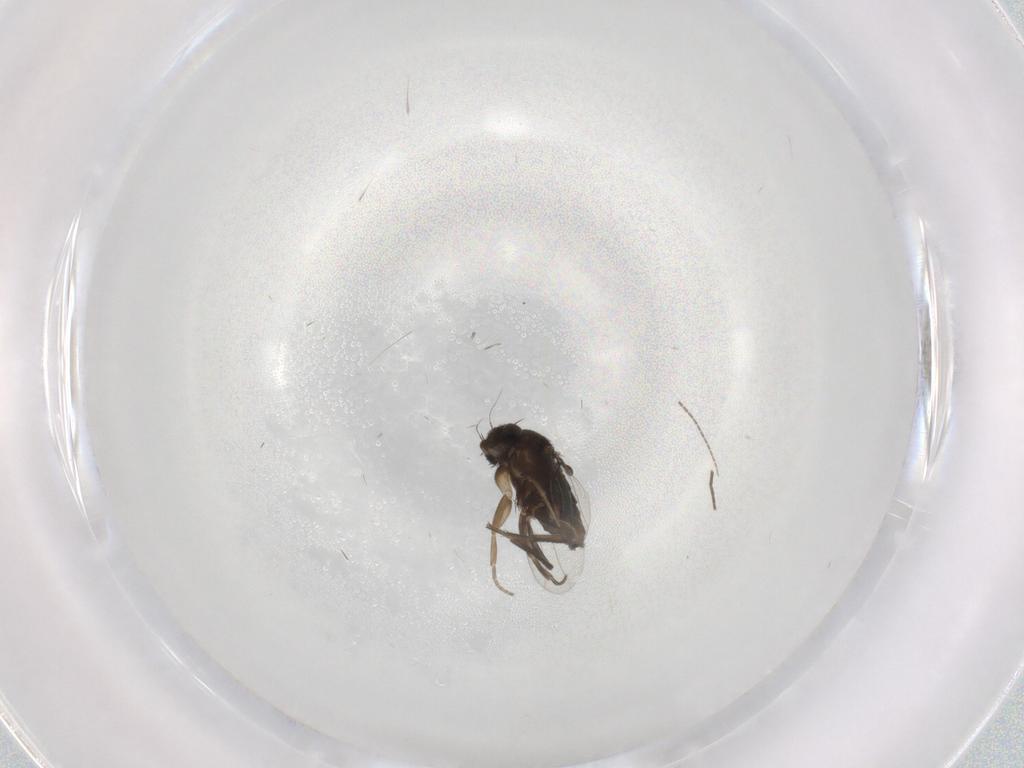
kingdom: Animalia
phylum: Arthropoda
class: Insecta
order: Diptera
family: Phoridae
